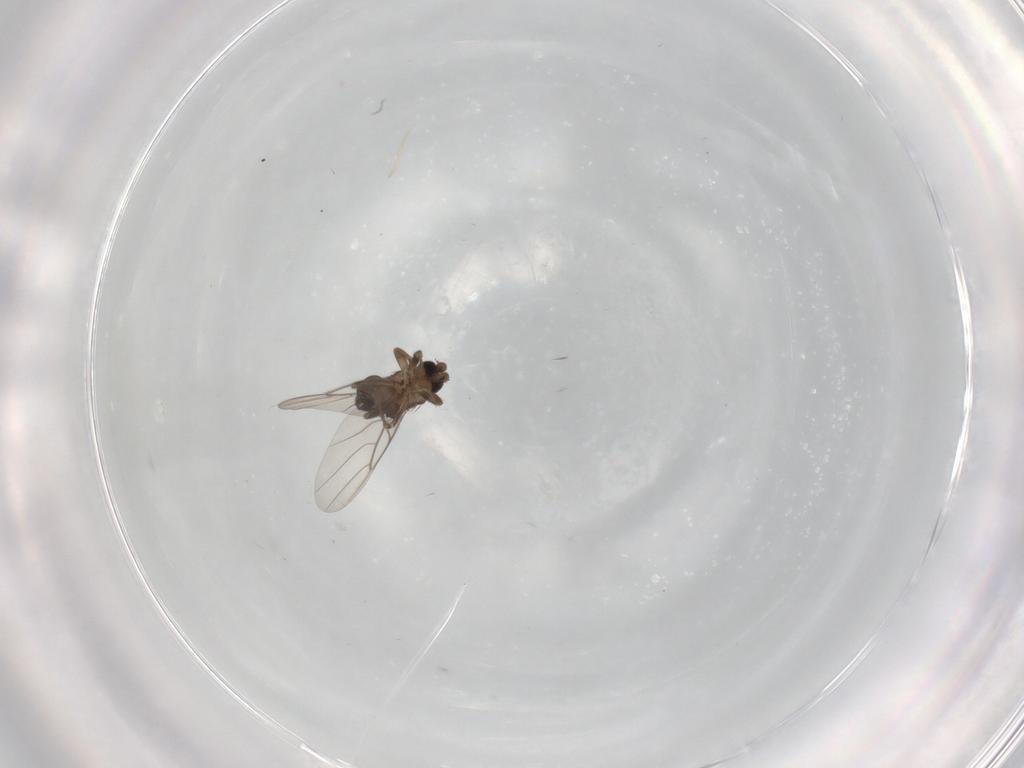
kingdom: Animalia
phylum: Arthropoda
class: Insecta
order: Diptera
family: Phoridae
